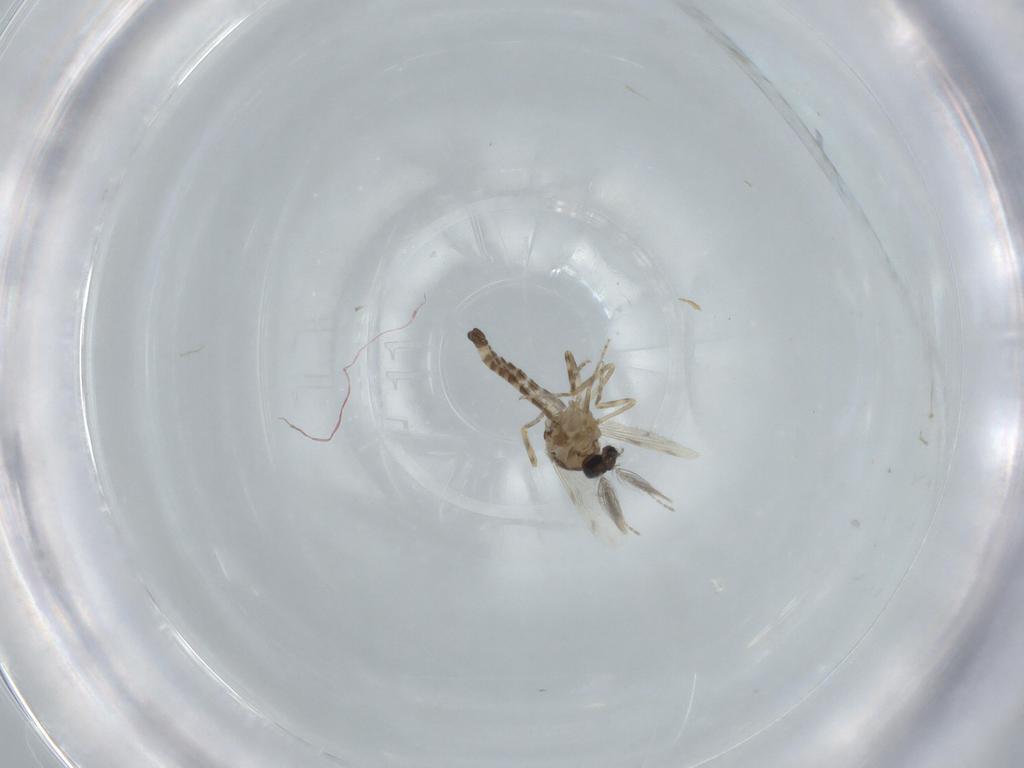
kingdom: Animalia
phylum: Arthropoda
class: Insecta
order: Diptera
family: Ceratopogonidae
